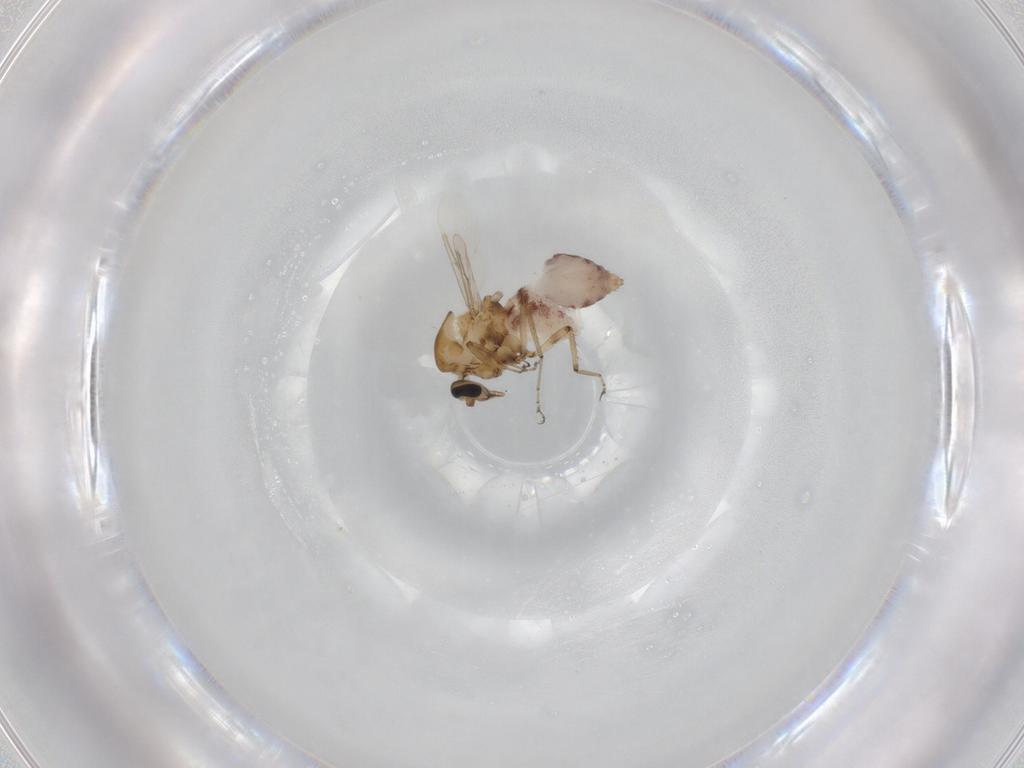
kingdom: Animalia
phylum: Arthropoda
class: Insecta
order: Diptera
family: Ceratopogonidae
